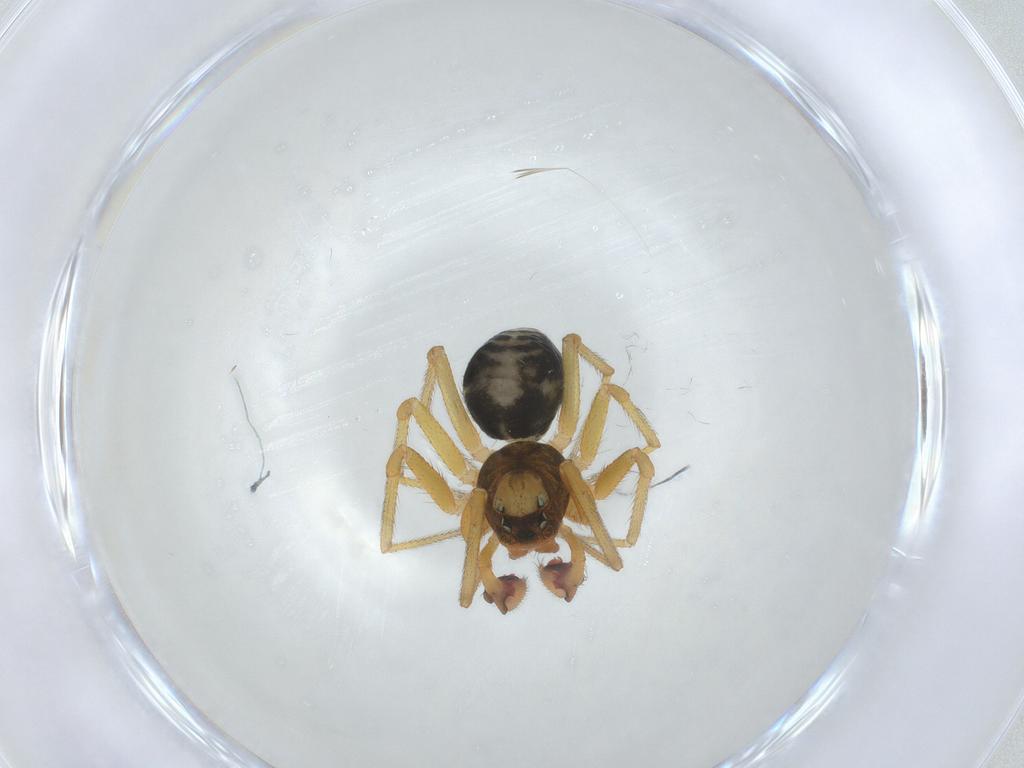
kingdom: Animalia
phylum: Arthropoda
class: Arachnida
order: Araneae
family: Linyphiidae
